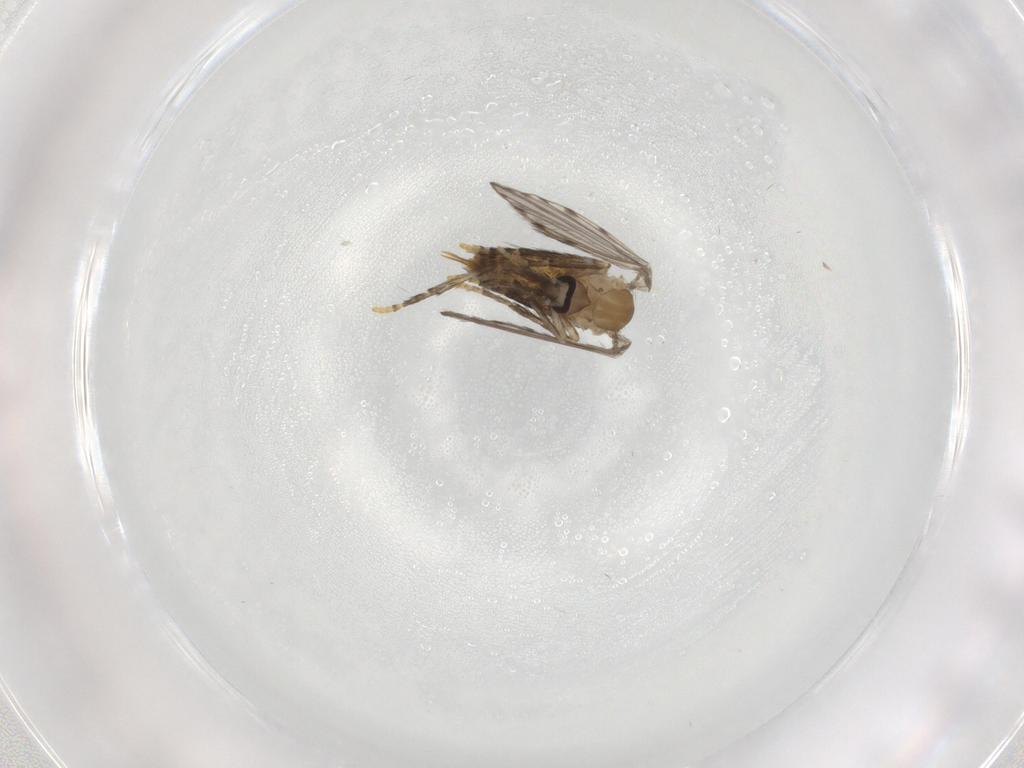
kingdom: Animalia
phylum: Arthropoda
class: Insecta
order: Diptera
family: Psychodidae
